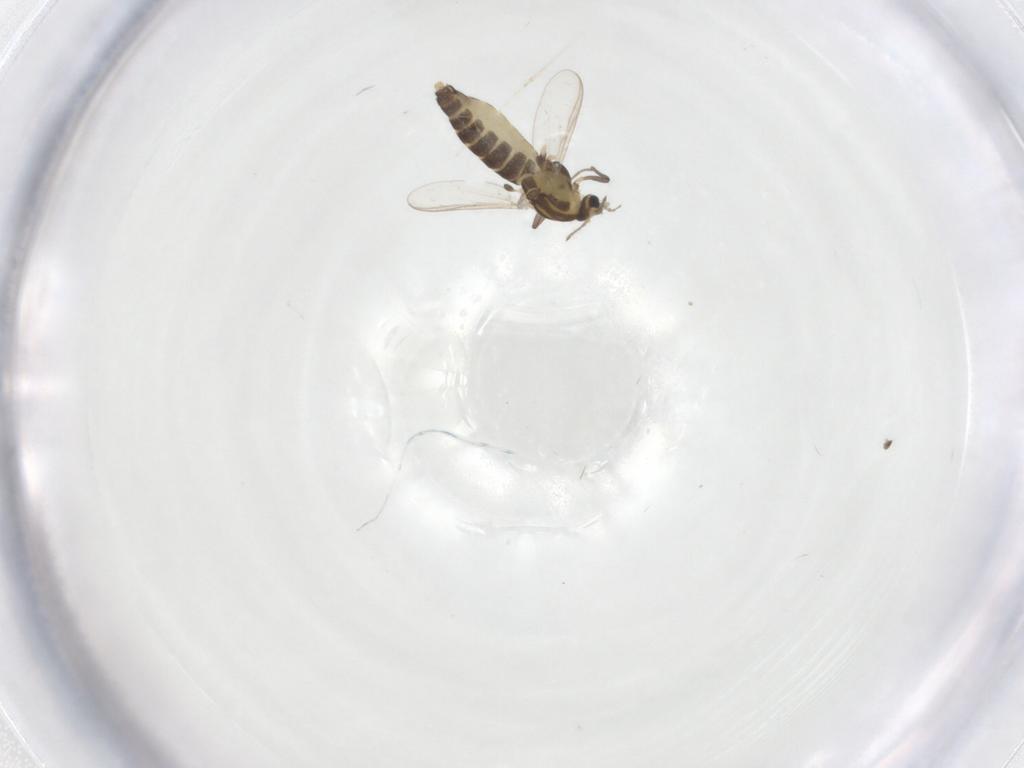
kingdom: Animalia
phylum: Arthropoda
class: Insecta
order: Diptera
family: Chironomidae
